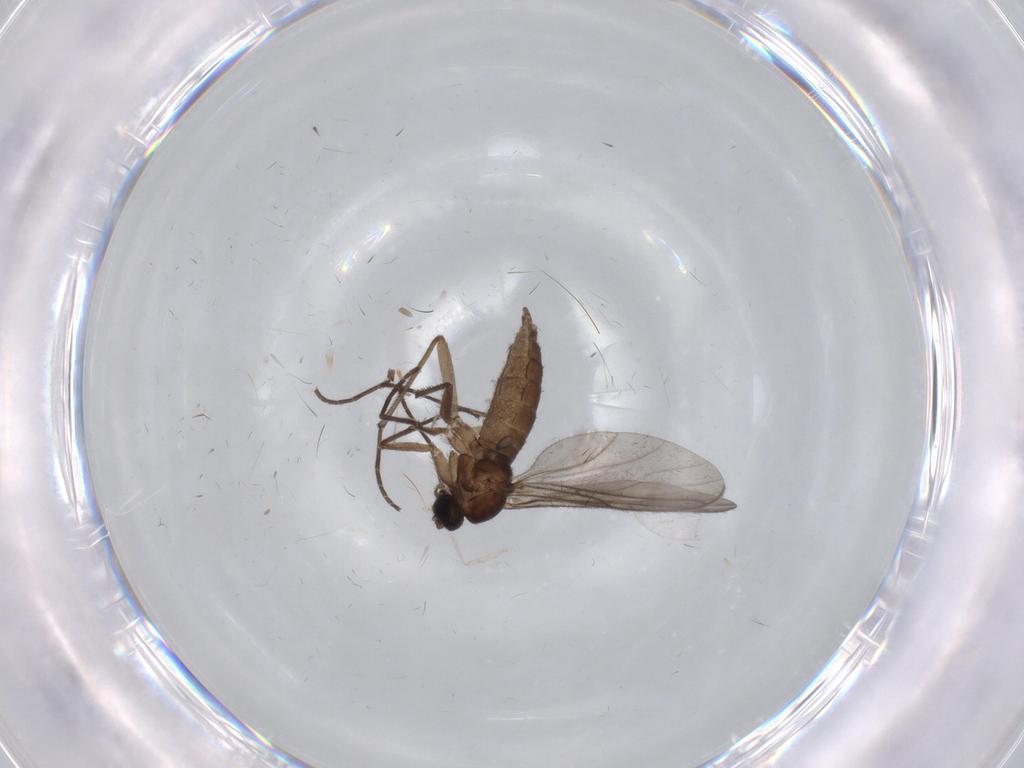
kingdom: Animalia
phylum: Arthropoda
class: Insecta
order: Diptera
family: Sciaridae
